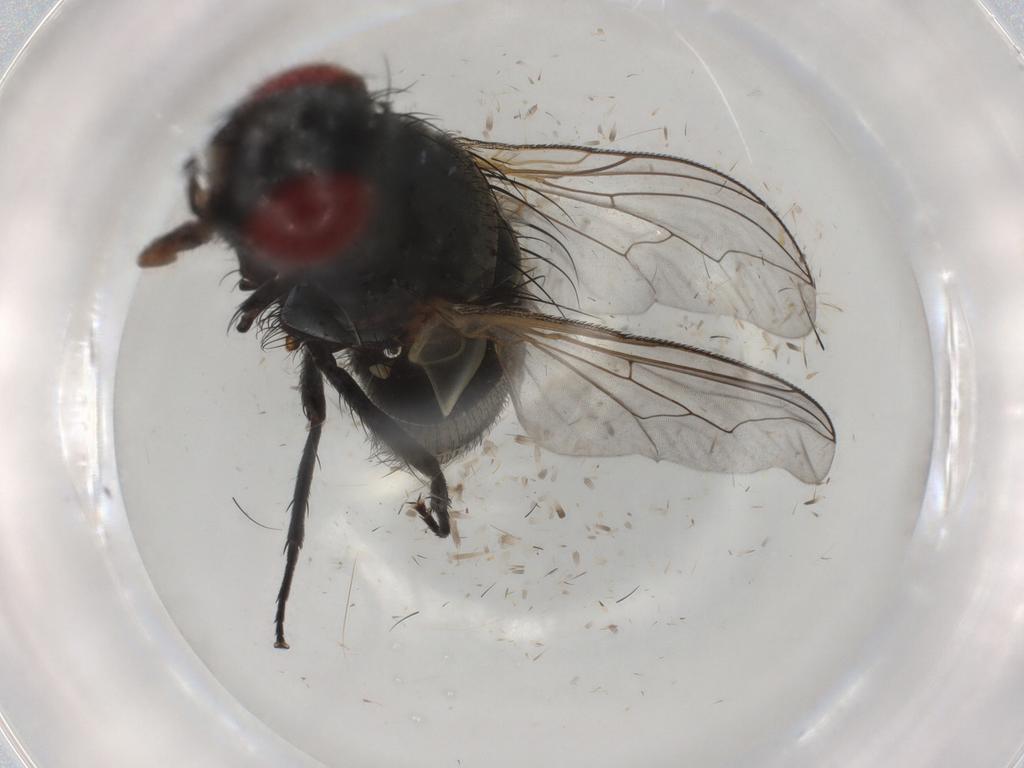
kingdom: Animalia
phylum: Arthropoda
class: Insecta
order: Diptera
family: Sarcophagidae
